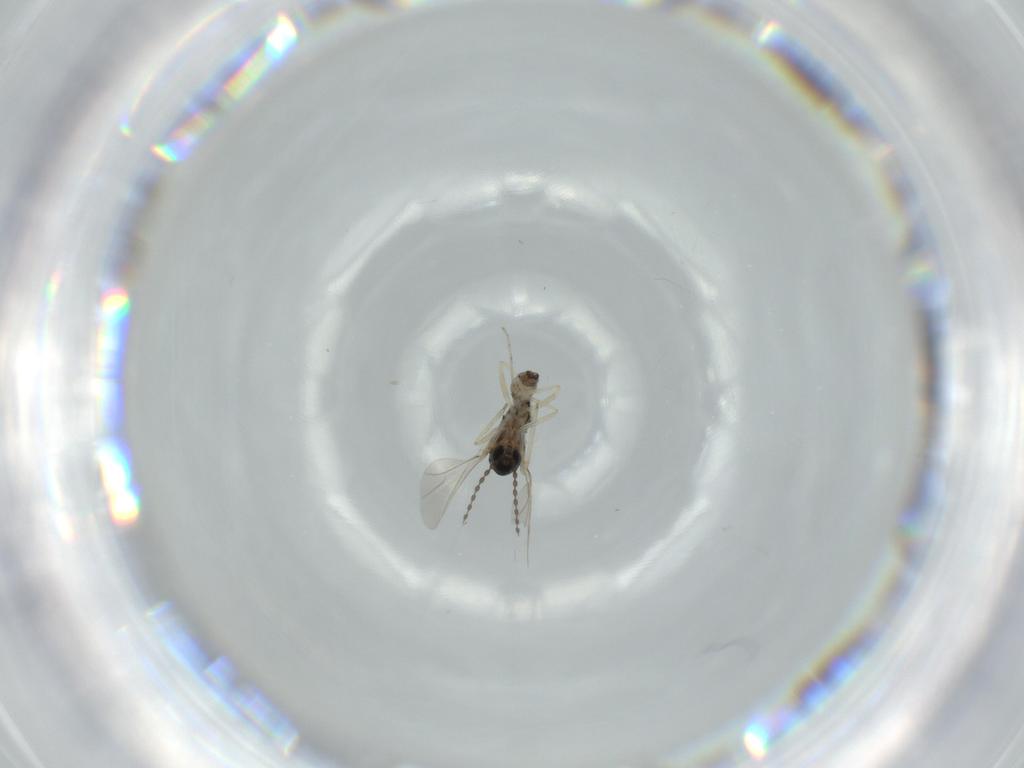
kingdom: Animalia
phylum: Arthropoda
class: Insecta
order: Diptera
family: Cecidomyiidae
